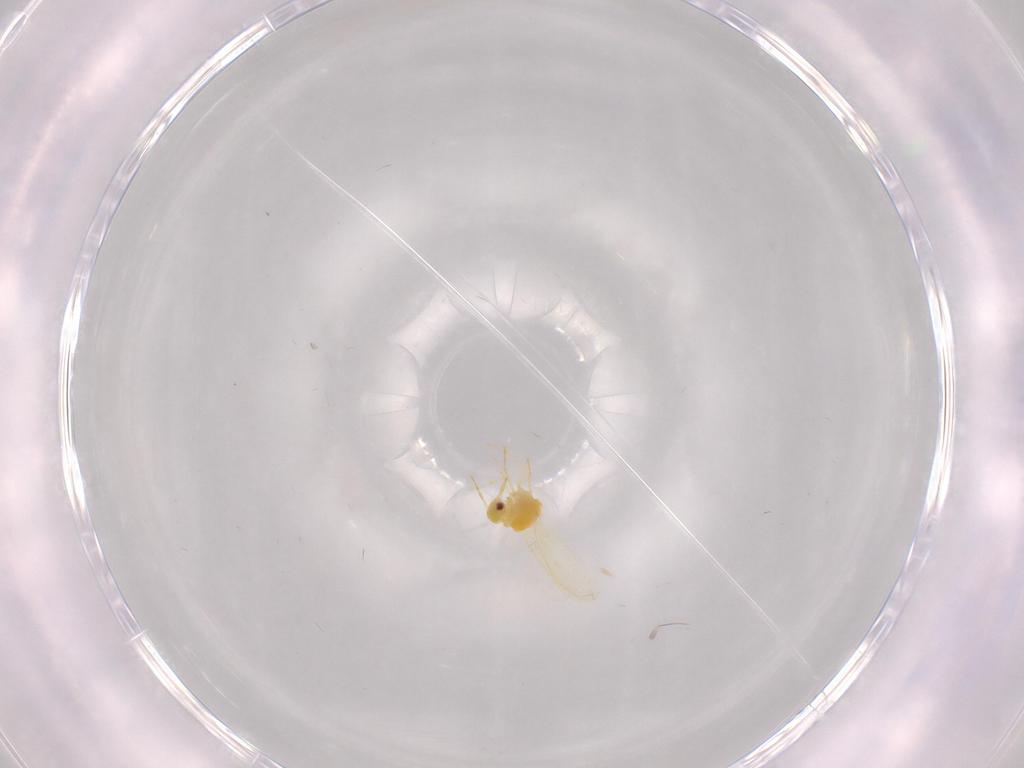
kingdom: Animalia
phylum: Arthropoda
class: Insecta
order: Hemiptera
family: Aleyrodidae
